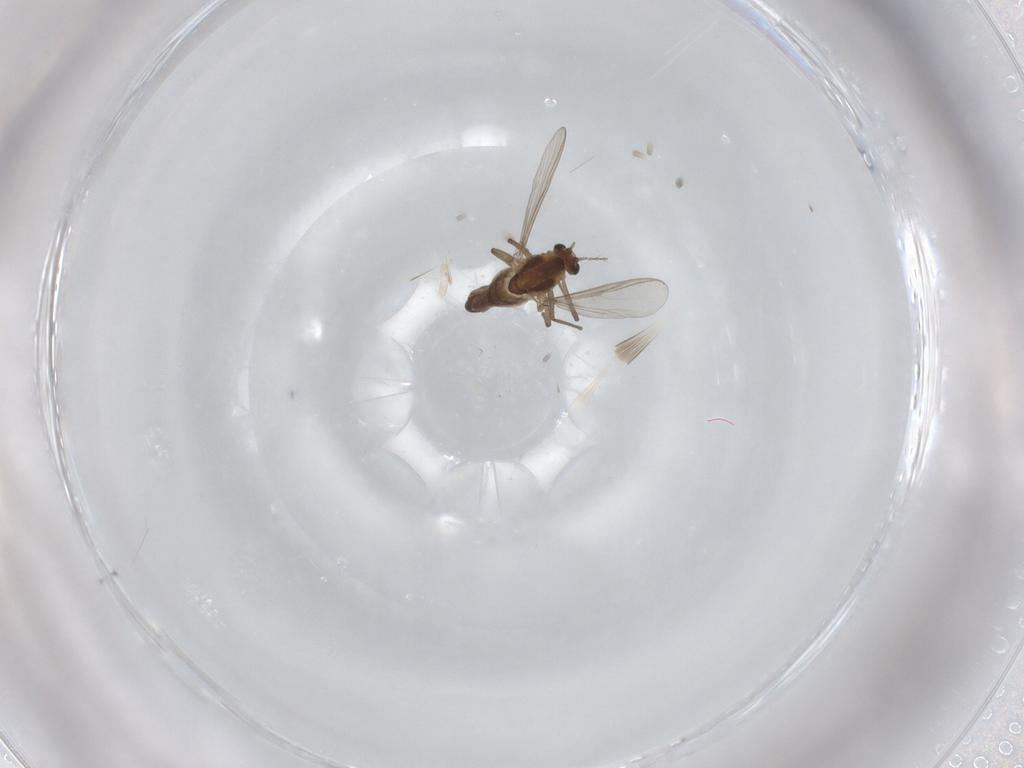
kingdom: Animalia
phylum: Arthropoda
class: Insecta
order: Diptera
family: Chironomidae
